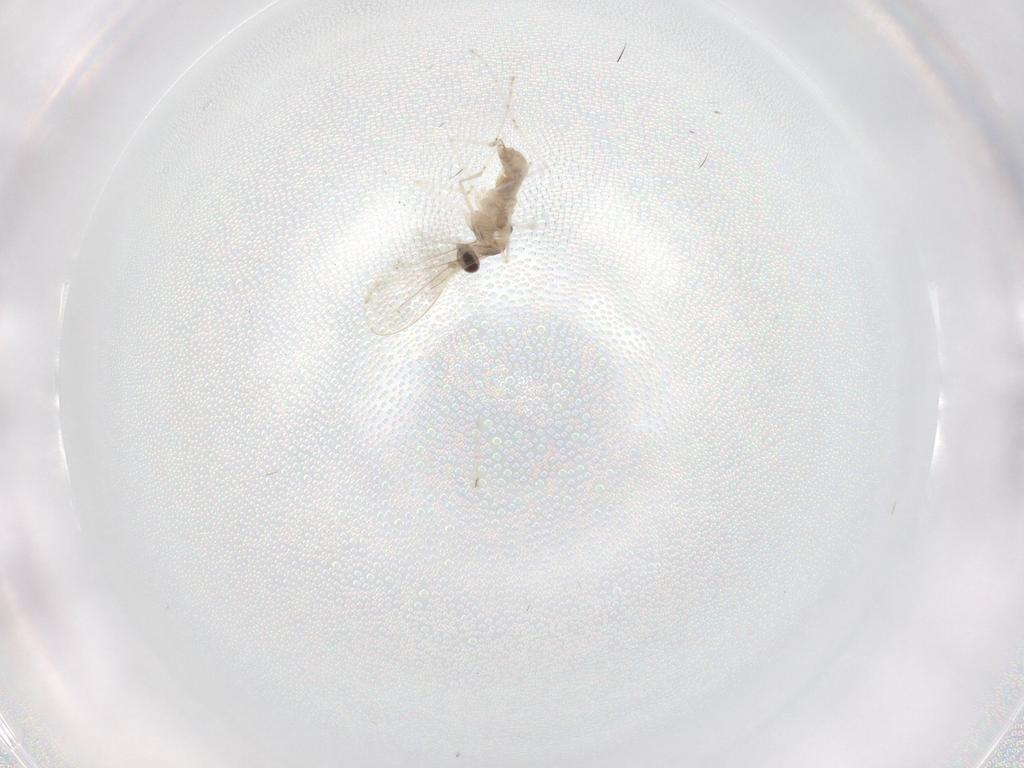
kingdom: Animalia
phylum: Arthropoda
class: Insecta
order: Diptera
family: Cecidomyiidae
